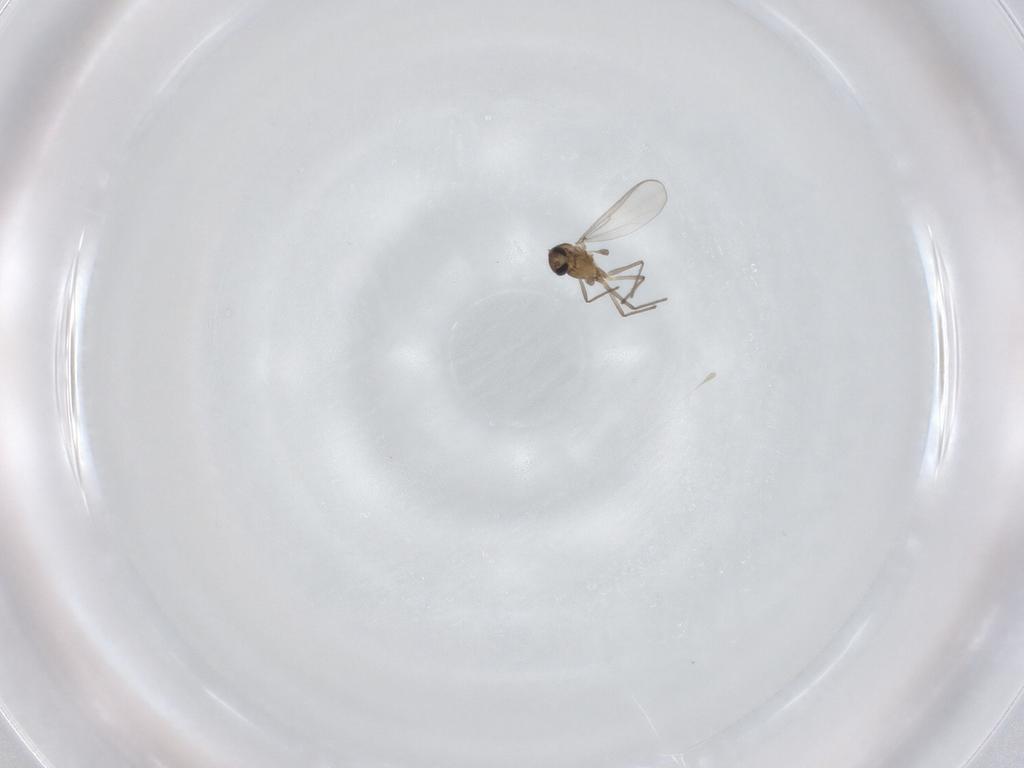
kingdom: Animalia
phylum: Arthropoda
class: Insecta
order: Diptera
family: Chironomidae
